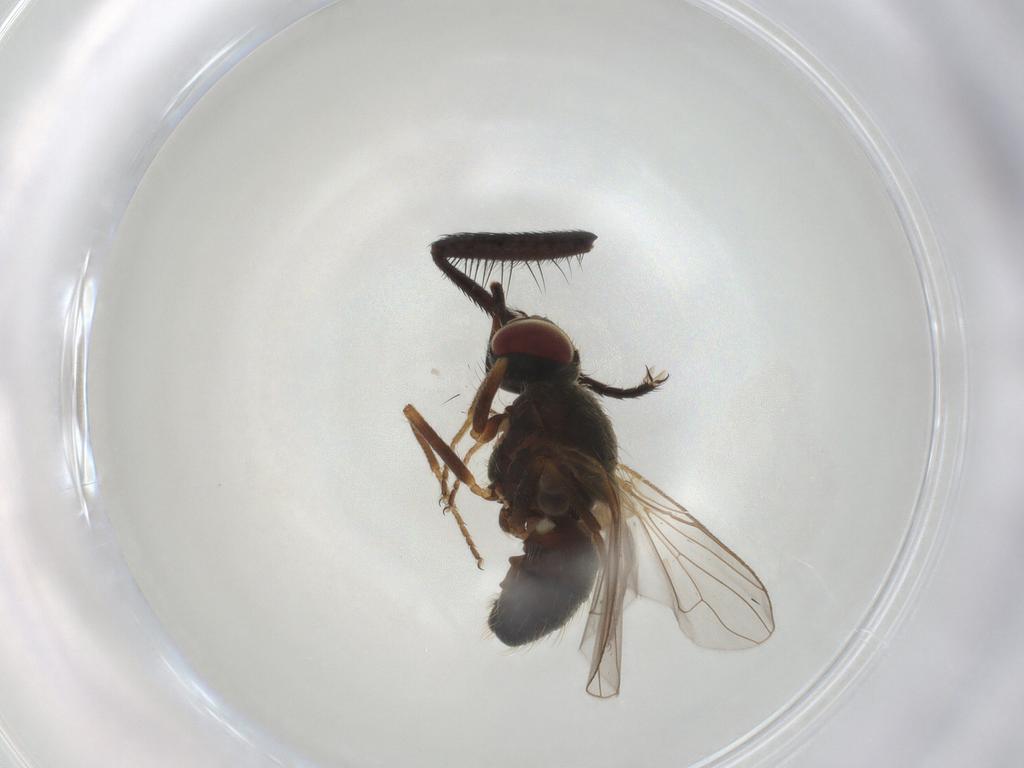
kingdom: Animalia
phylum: Arthropoda
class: Insecta
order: Diptera
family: Muscidae
